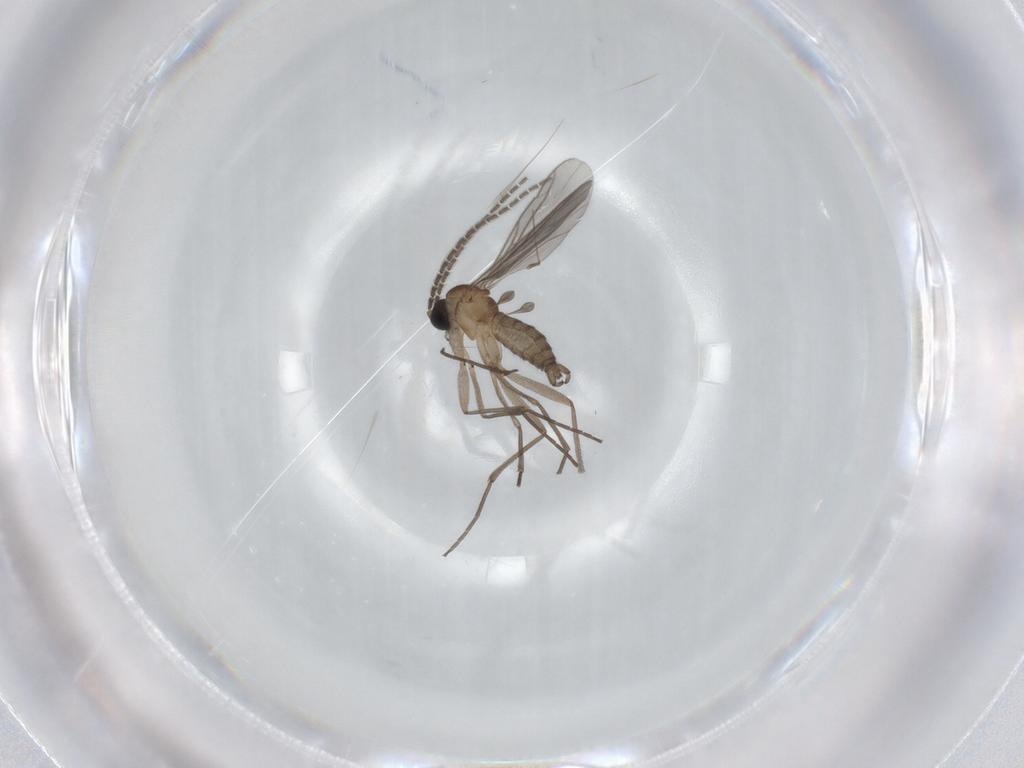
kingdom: Animalia
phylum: Arthropoda
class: Insecta
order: Diptera
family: Sciaridae
